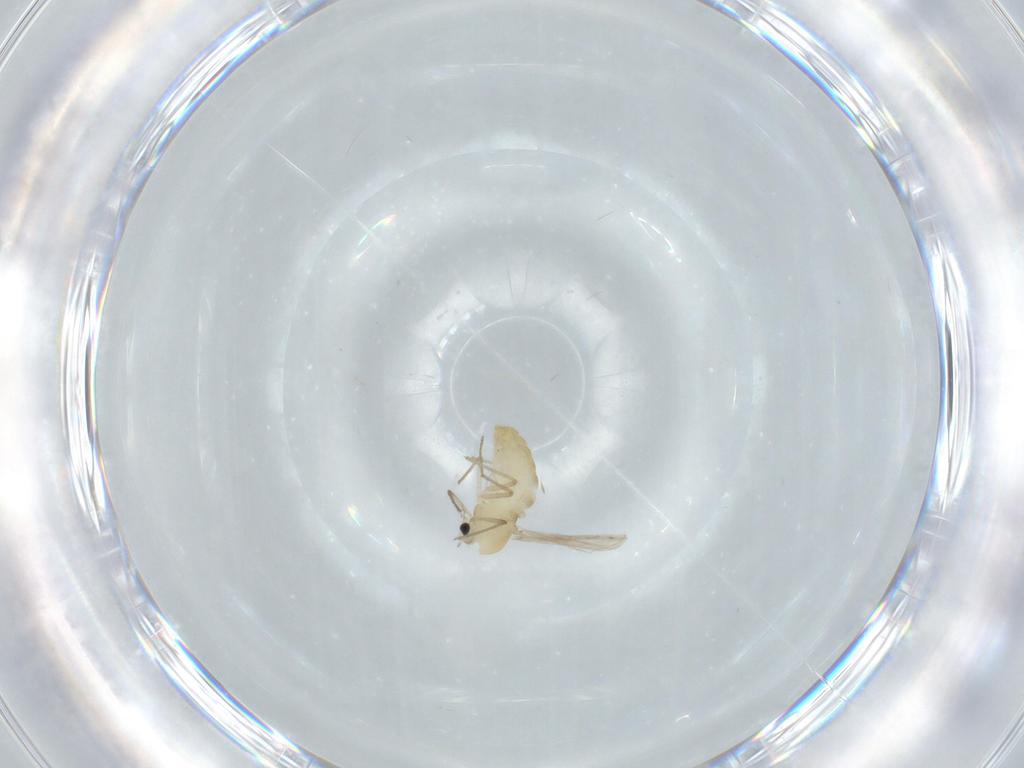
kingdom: Animalia
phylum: Arthropoda
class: Insecta
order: Diptera
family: Chironomidae
